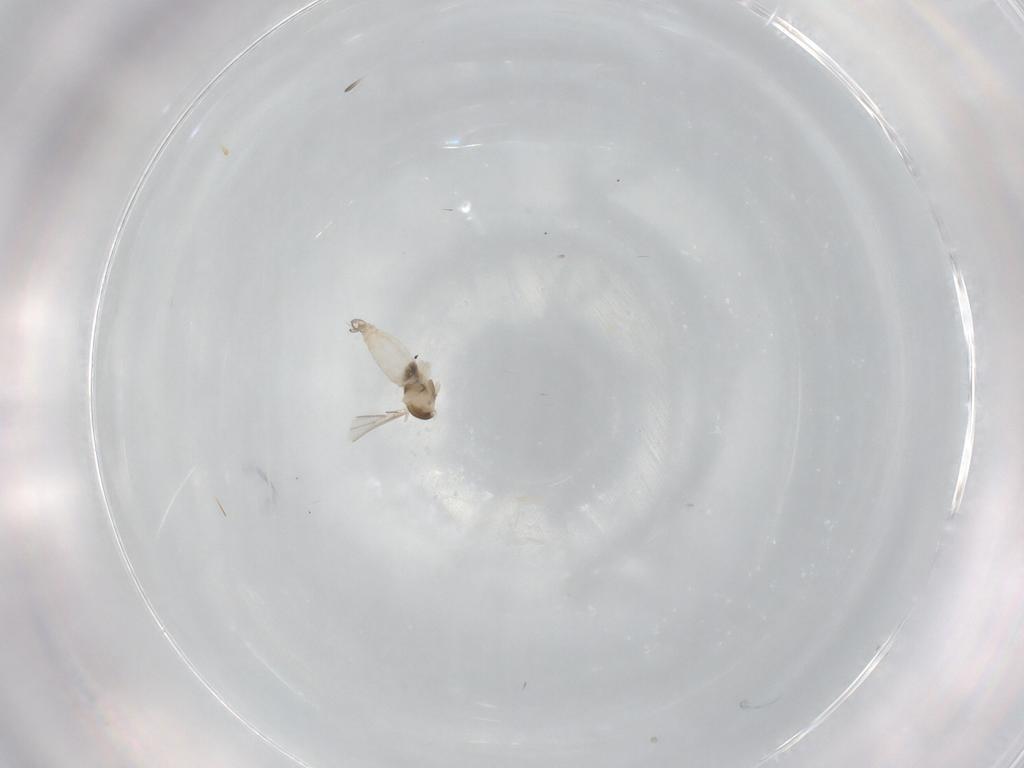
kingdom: Animalia
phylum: Arthropoda
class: Insecta
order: Diptera
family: Cecidomyiidae
